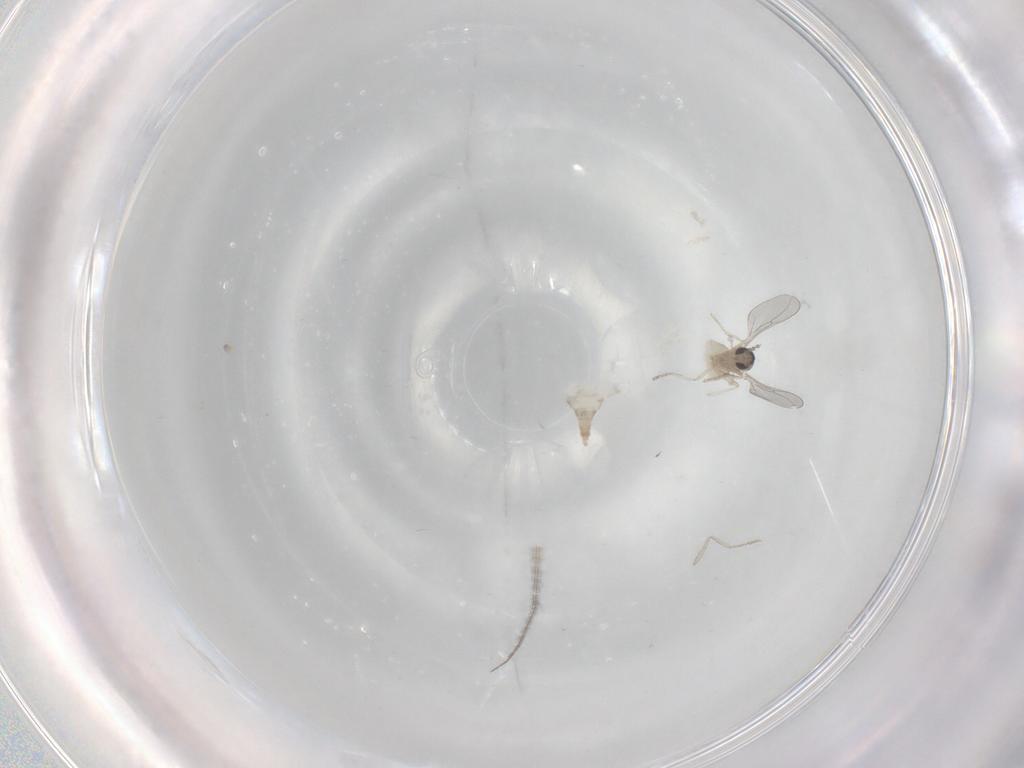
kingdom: Animalia
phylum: Arthropoda
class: Insecta
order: Diptera
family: Cecidomyiidae
